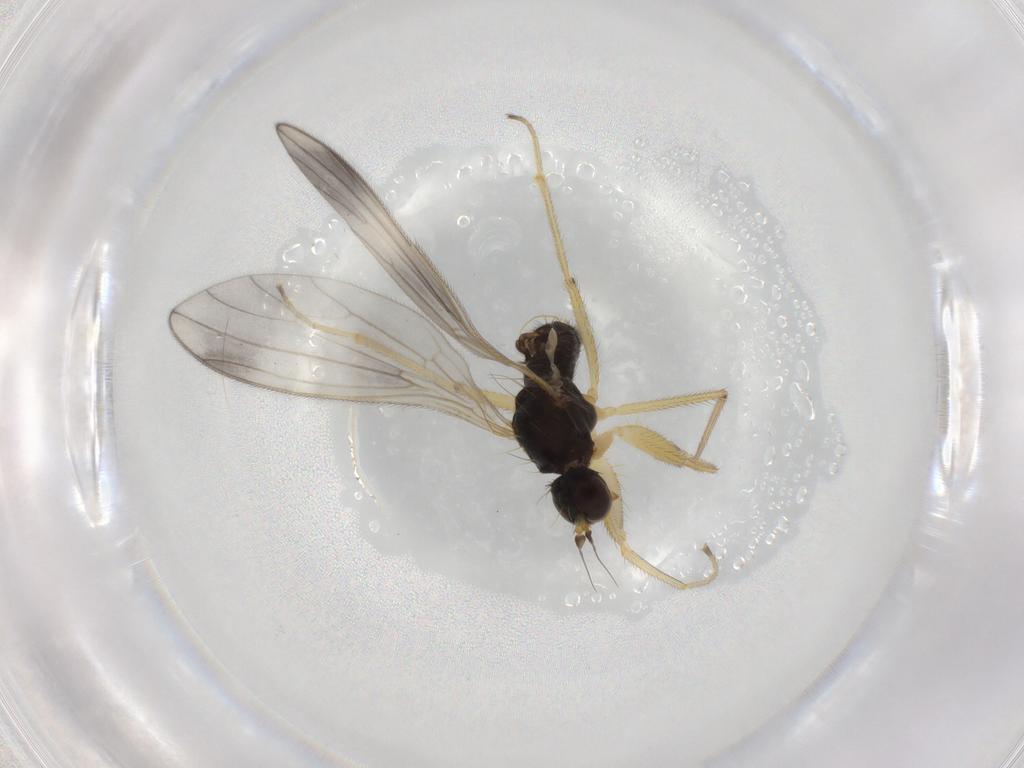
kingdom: Animalia
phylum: Arthropoda
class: Insecta
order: Diptera
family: Empididae
